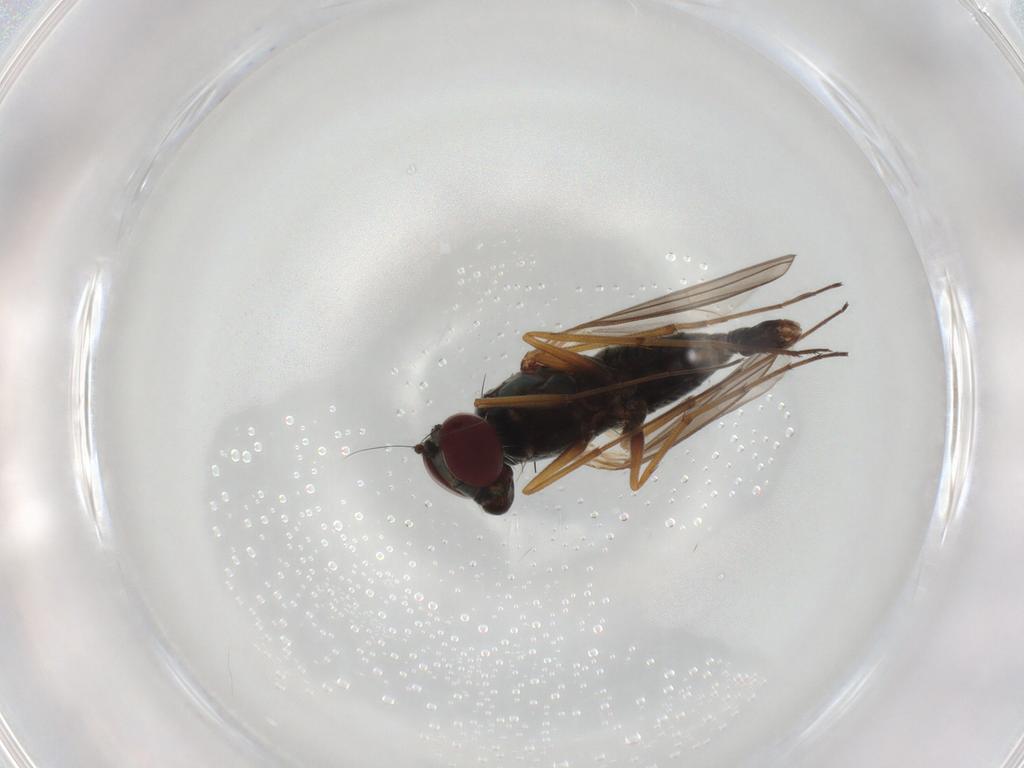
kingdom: Animalia
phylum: Arthropoda
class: Insecta
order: Diptera
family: Dolichopodidae
